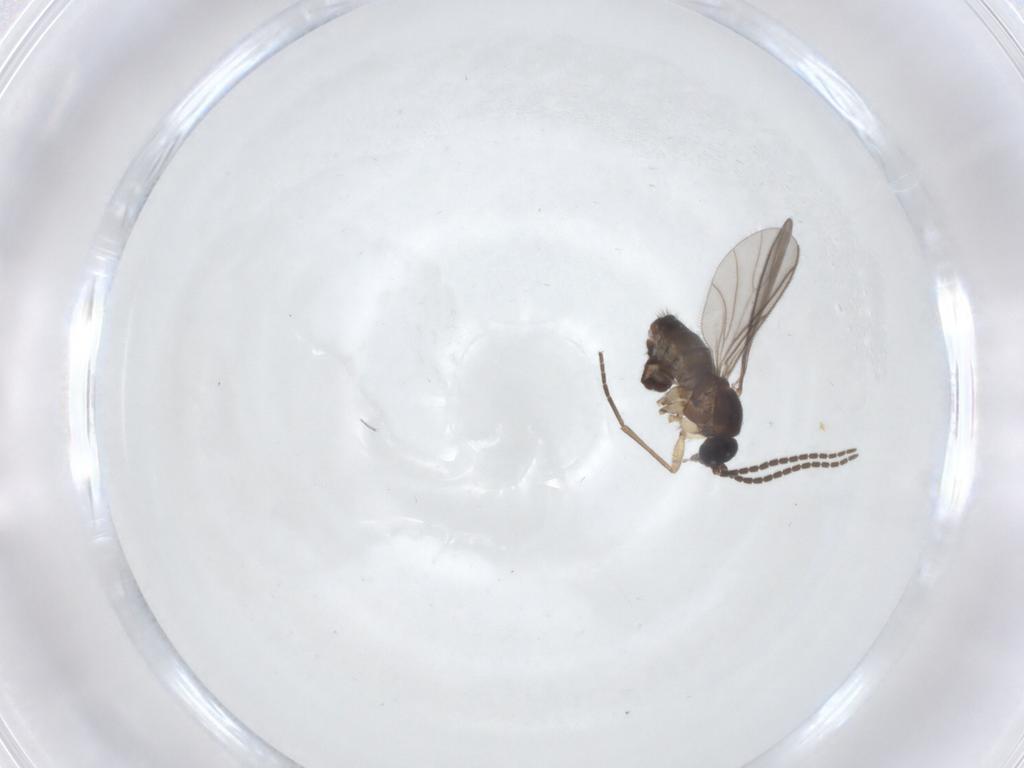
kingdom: Animalia
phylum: Arthropoda
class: Insecta
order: Diptera
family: Sciaridae
